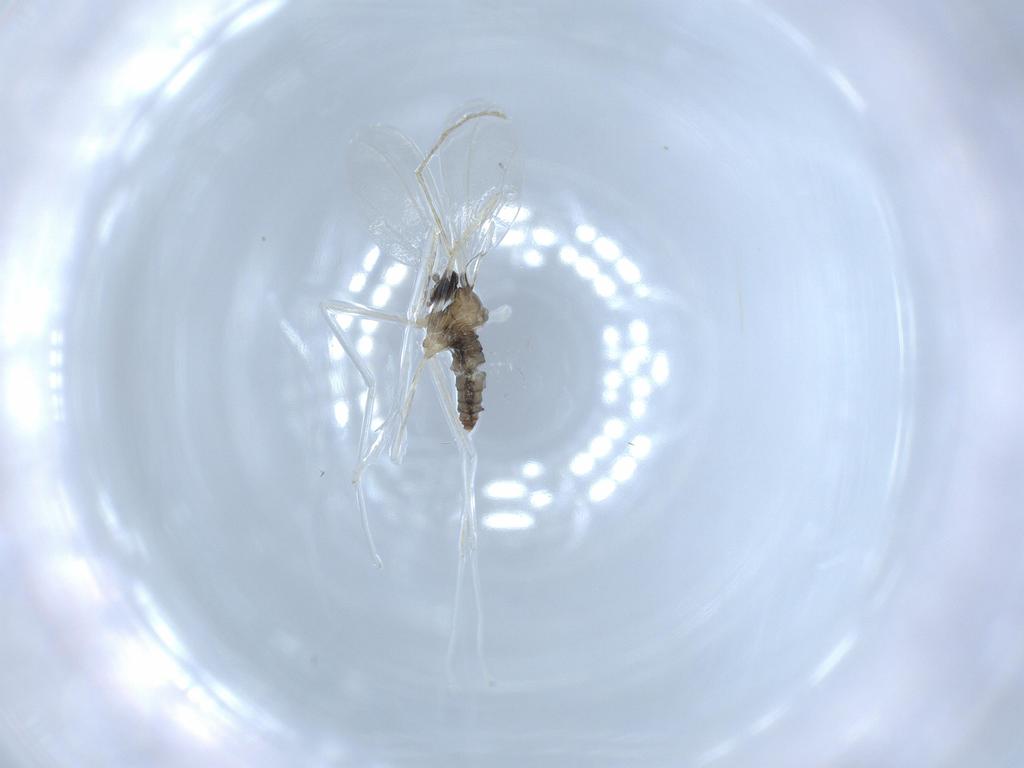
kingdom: Animalia
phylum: Arthropoda
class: Insecta
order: Diptera
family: Cecidomyiidae
